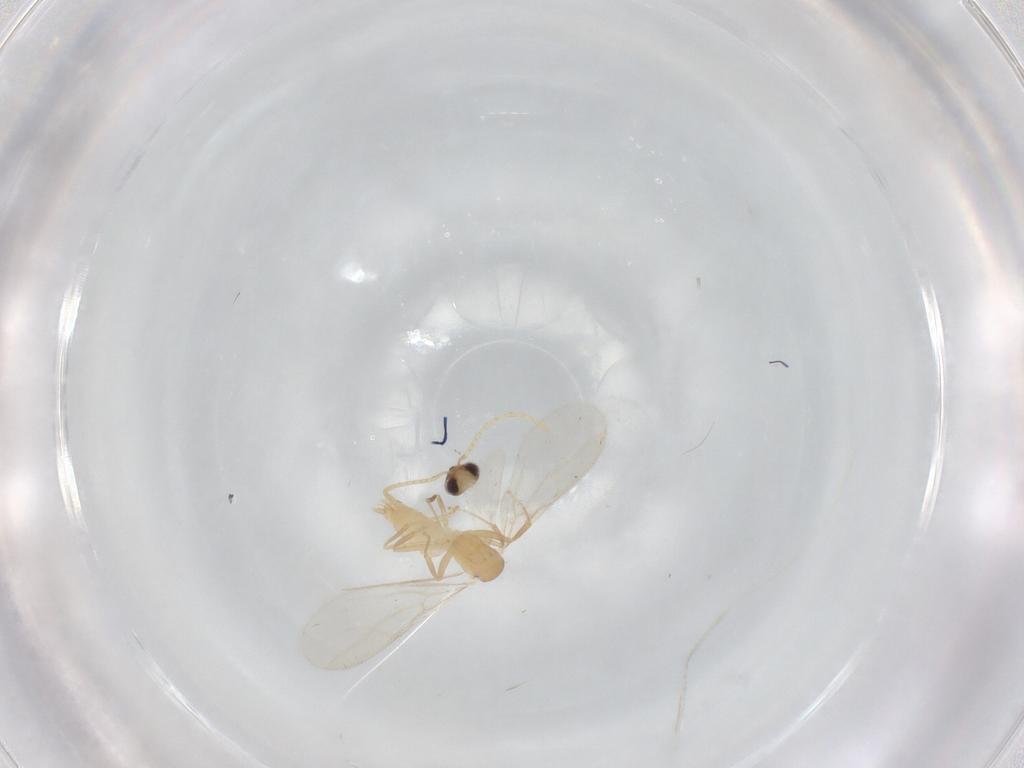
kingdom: Animalia
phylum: Arthropoda
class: Insecta
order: Hymenoptera
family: Formicidae
